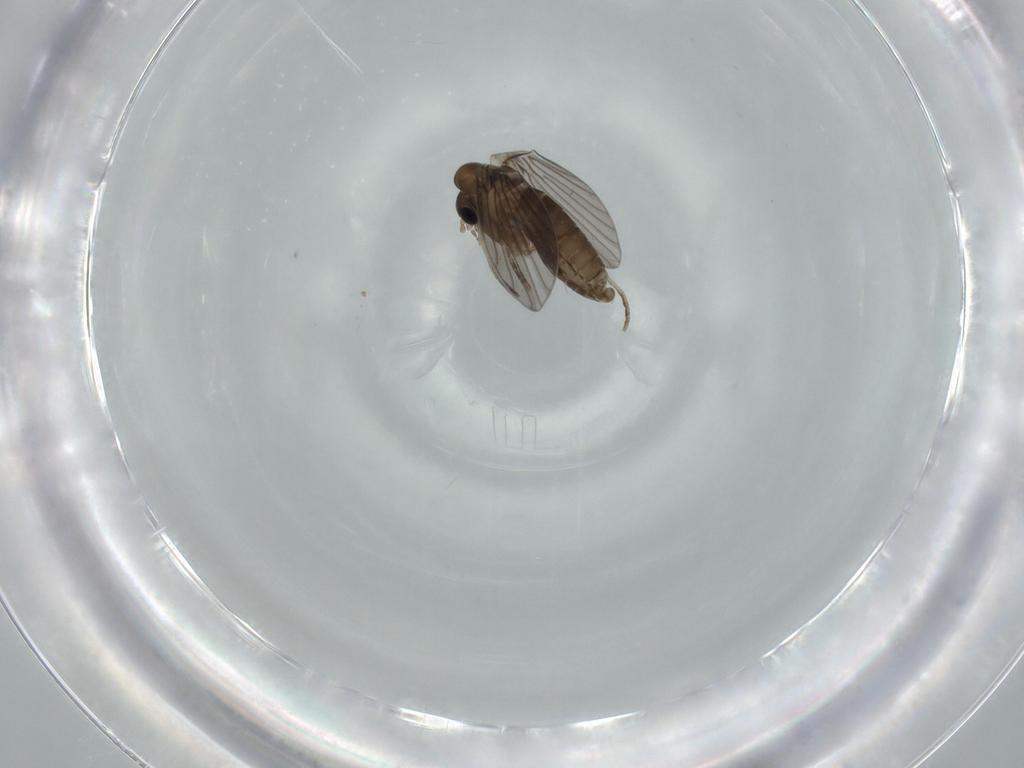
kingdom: Animalia
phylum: Arthropoda
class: Insecta
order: Diptera
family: Psychodidae
